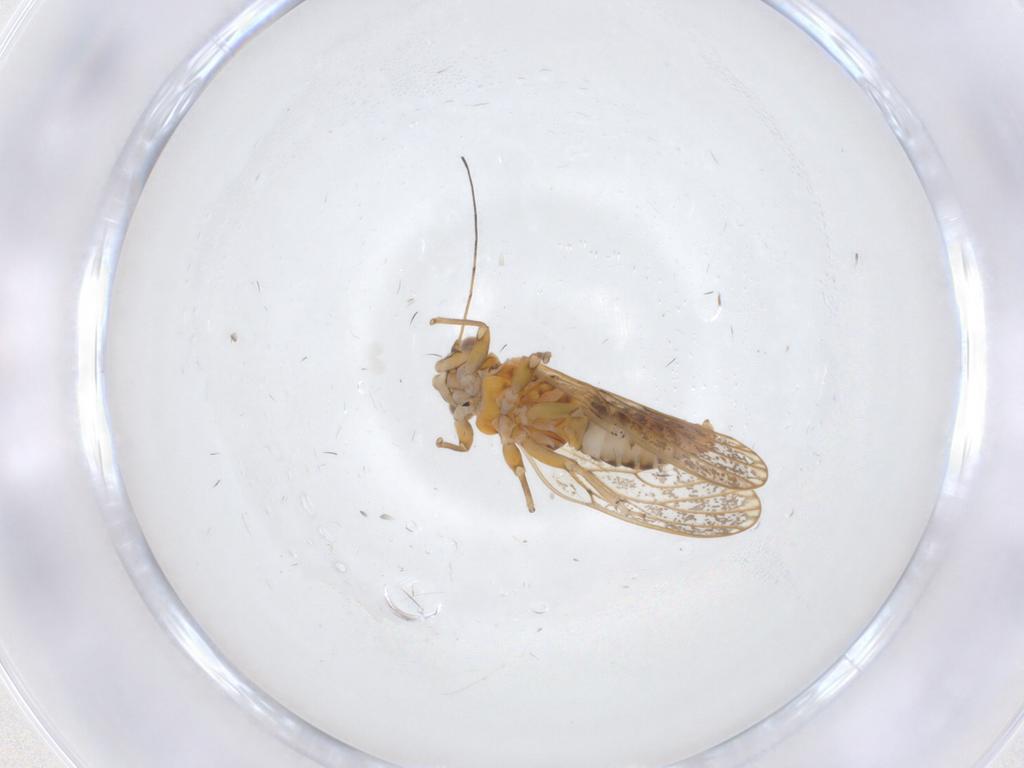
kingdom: Animalia
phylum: Arthropoda
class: Insecta
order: Hemiptera
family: Psyllidae
